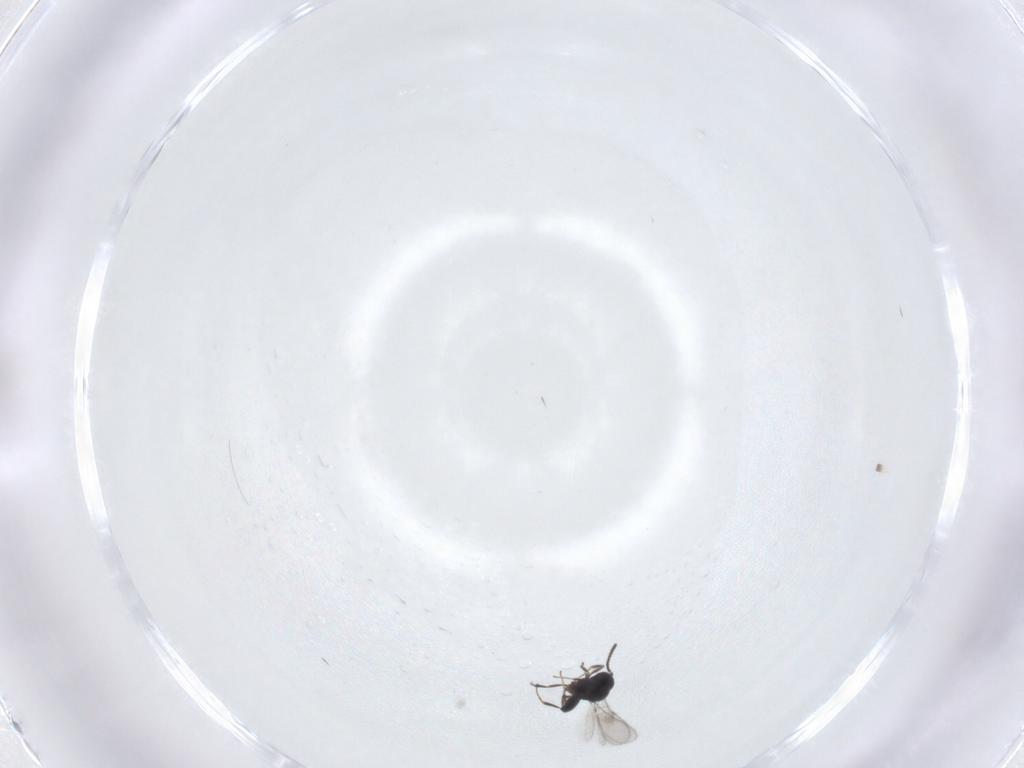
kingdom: Animalia
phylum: Arthropoda
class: Insecta
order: Hymenoptera
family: Scelionidae
